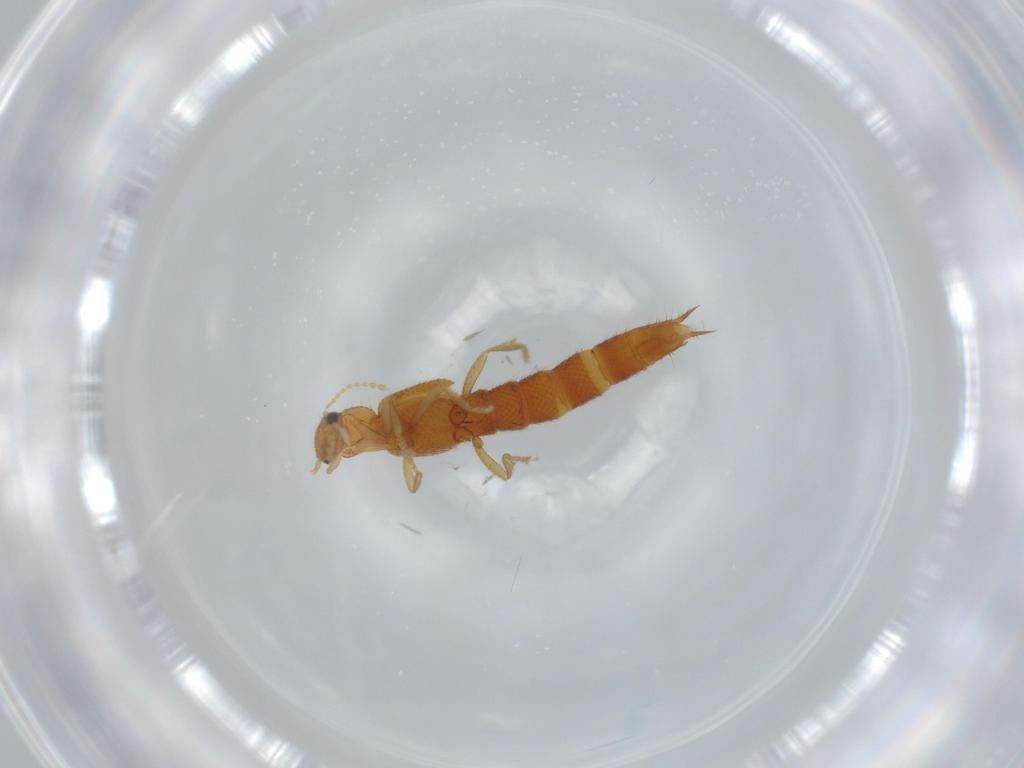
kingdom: Animalia
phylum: Arthropoda
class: Insecta
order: Coleoptera
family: Staphylinidae
